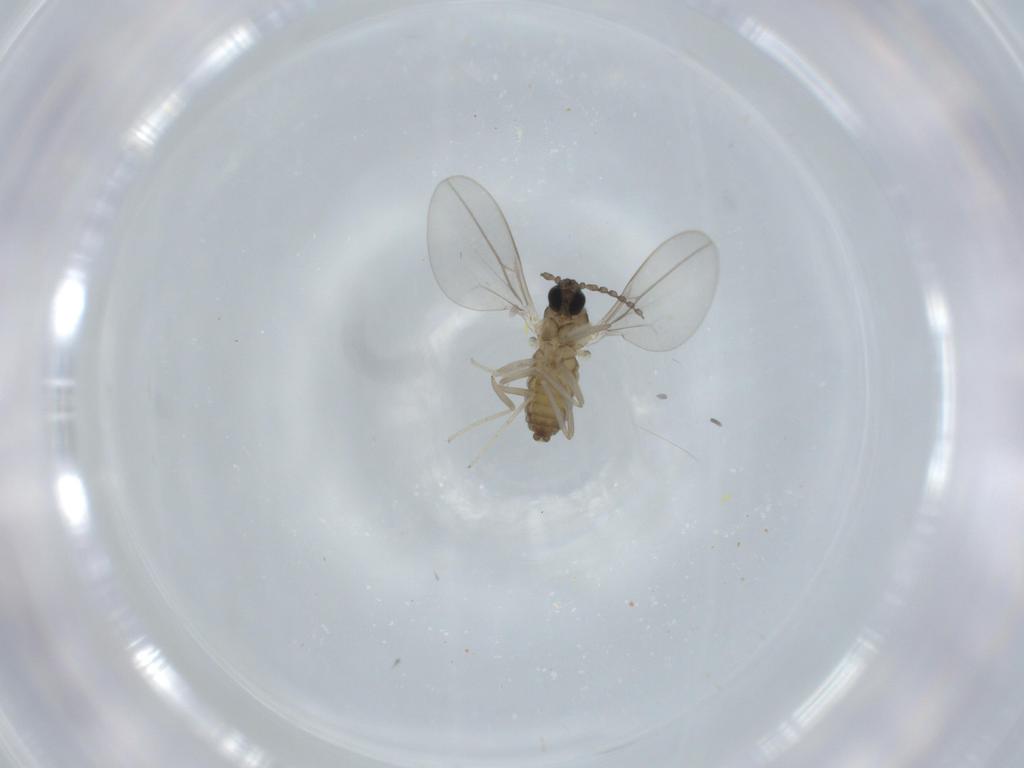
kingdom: Animalia
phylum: Arthropoda
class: Insecta
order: Diptera
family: Cecidomyiidae
